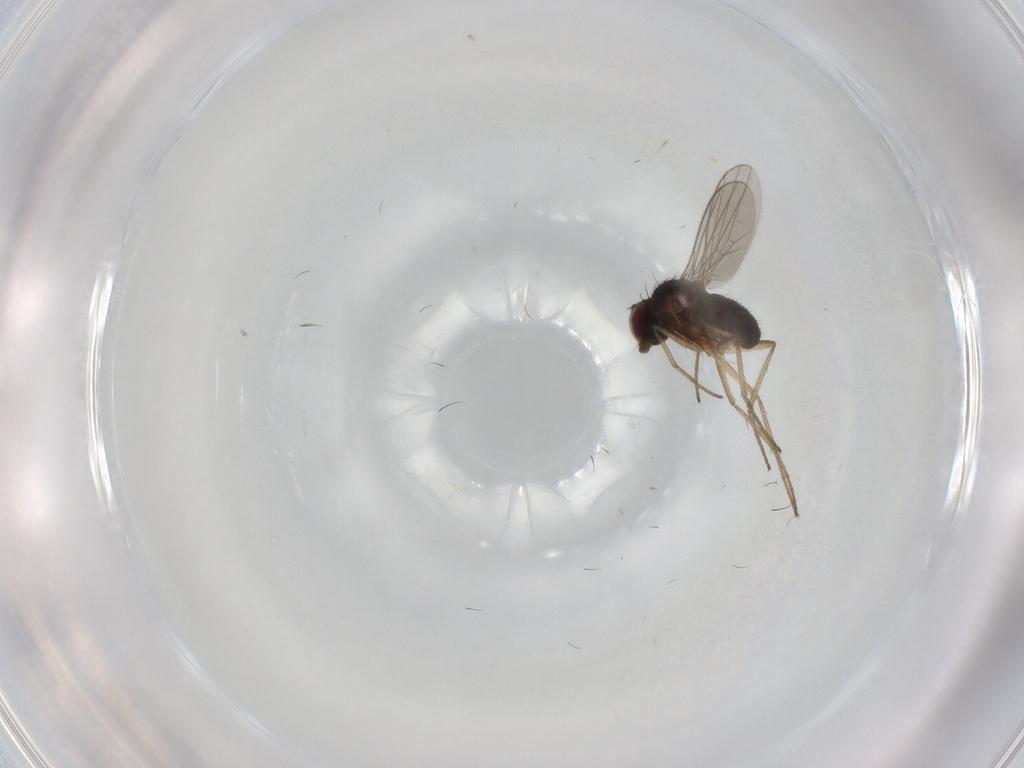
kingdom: Animalia
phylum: Arthropoda
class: Insecta
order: Diptera
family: Dolichopodidae
